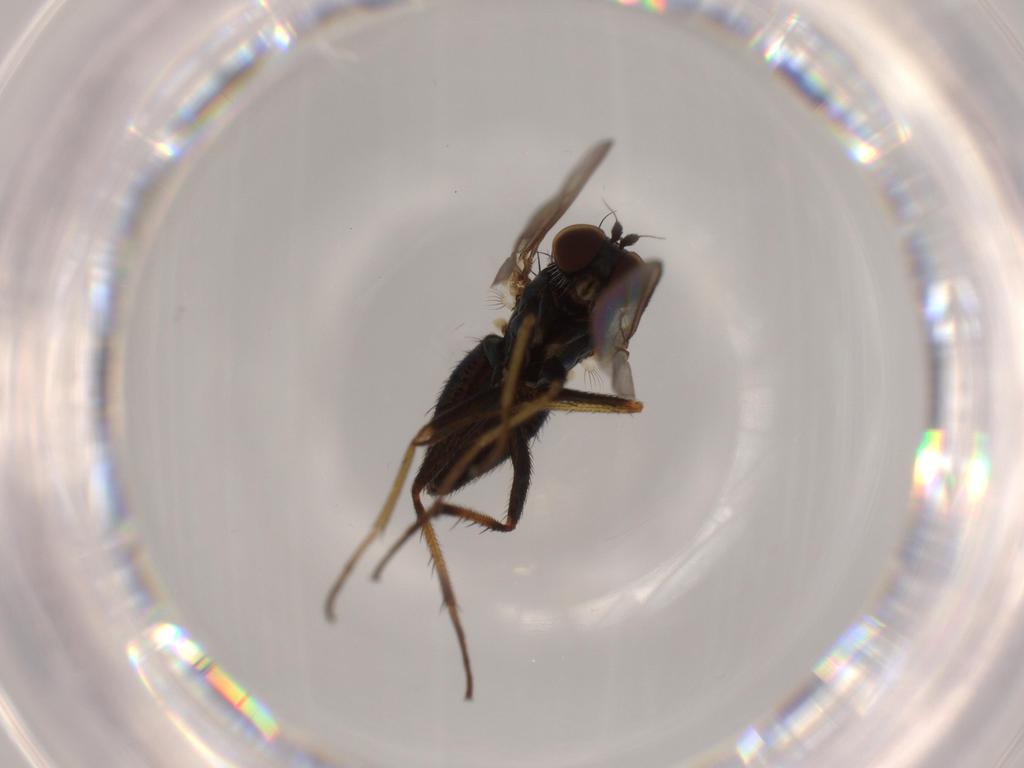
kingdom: Animalia
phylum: Arthropoda
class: Insecta
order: Diptera
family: Dolichopodidae
